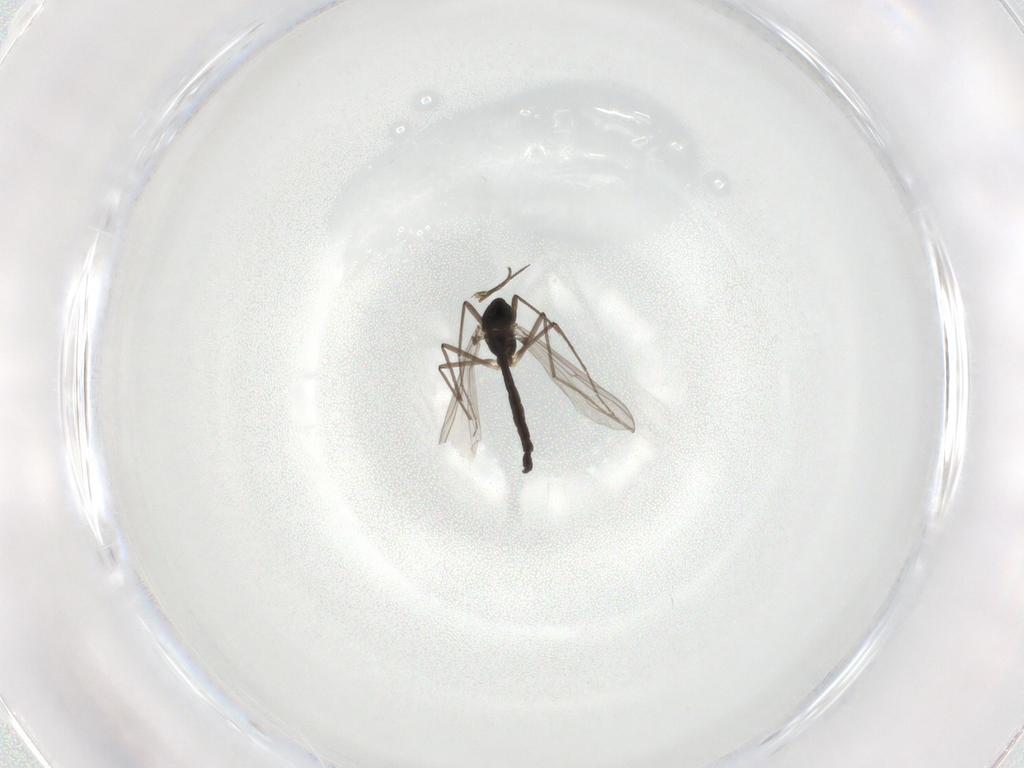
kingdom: Animalia
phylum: Arthropoda
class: Insecta
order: Diptera
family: Chironomidae
